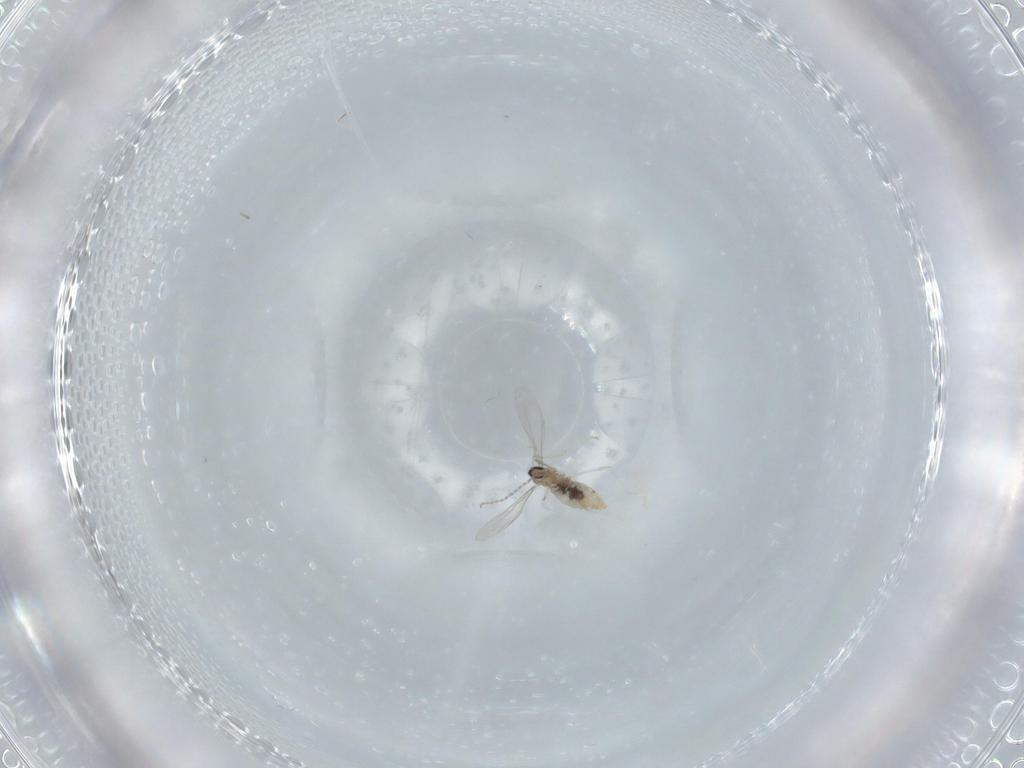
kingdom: Animalia
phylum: Arthropoda
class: Insecta
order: Diptera
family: Cecidomyiidae
